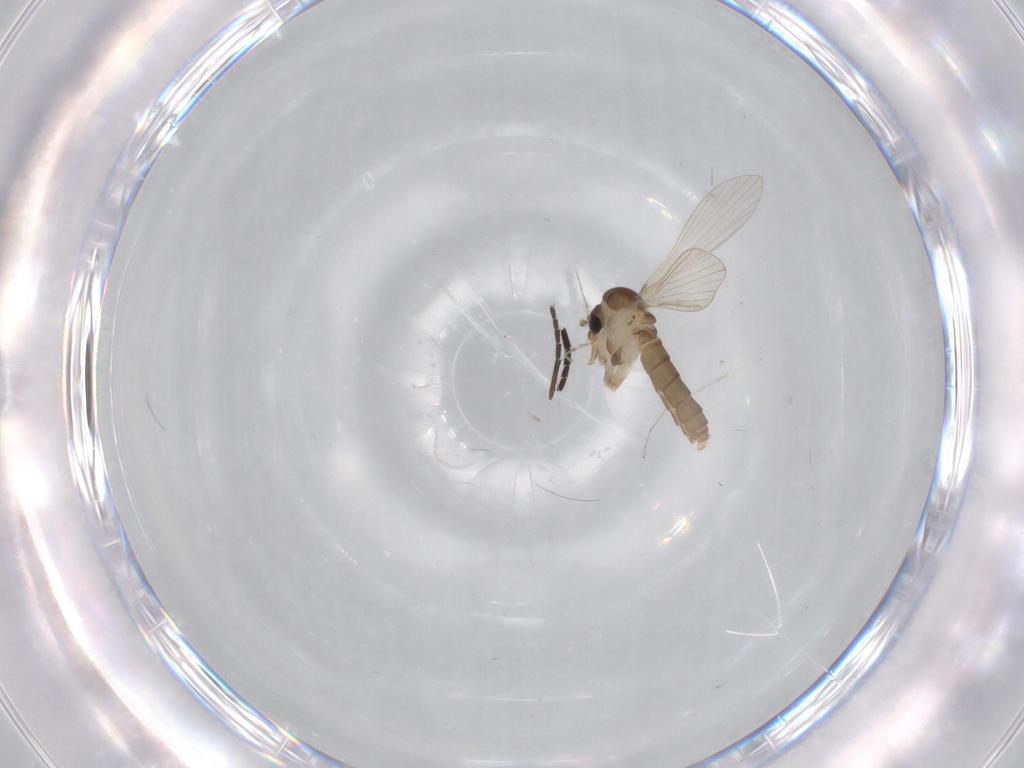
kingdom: Animalia
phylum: Arthropoda
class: Insecta
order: Diptera
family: Psychodidae
